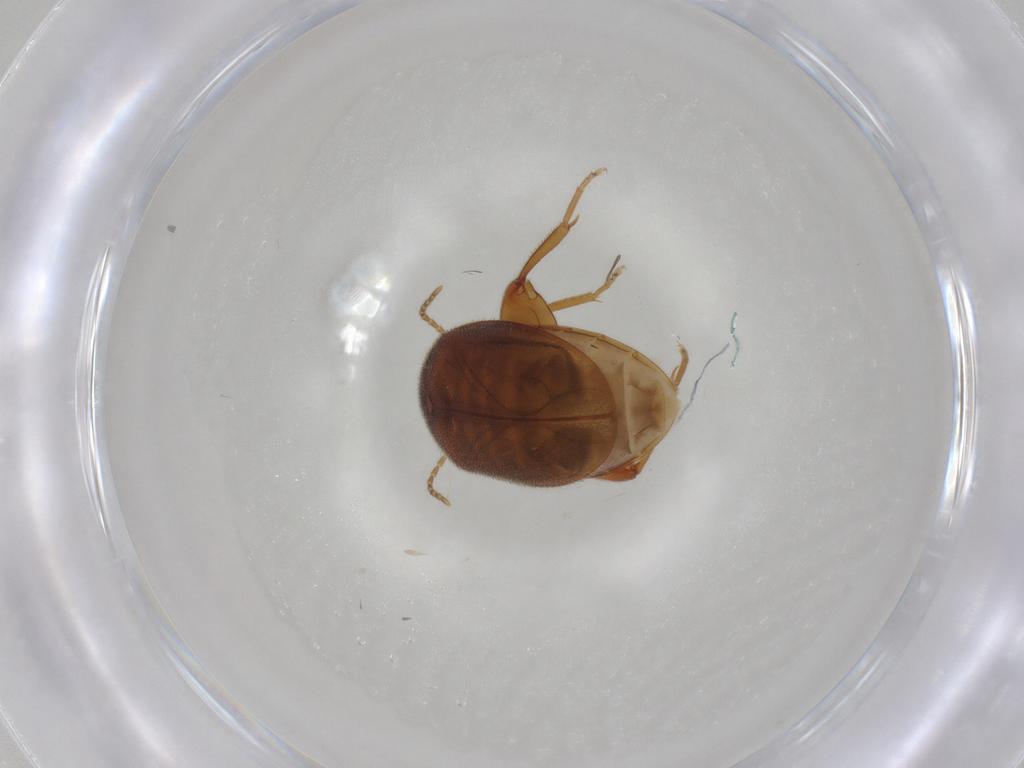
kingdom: Animalia
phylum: Arthropoda
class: Insecta
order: Coleoptera
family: Scirtidae
